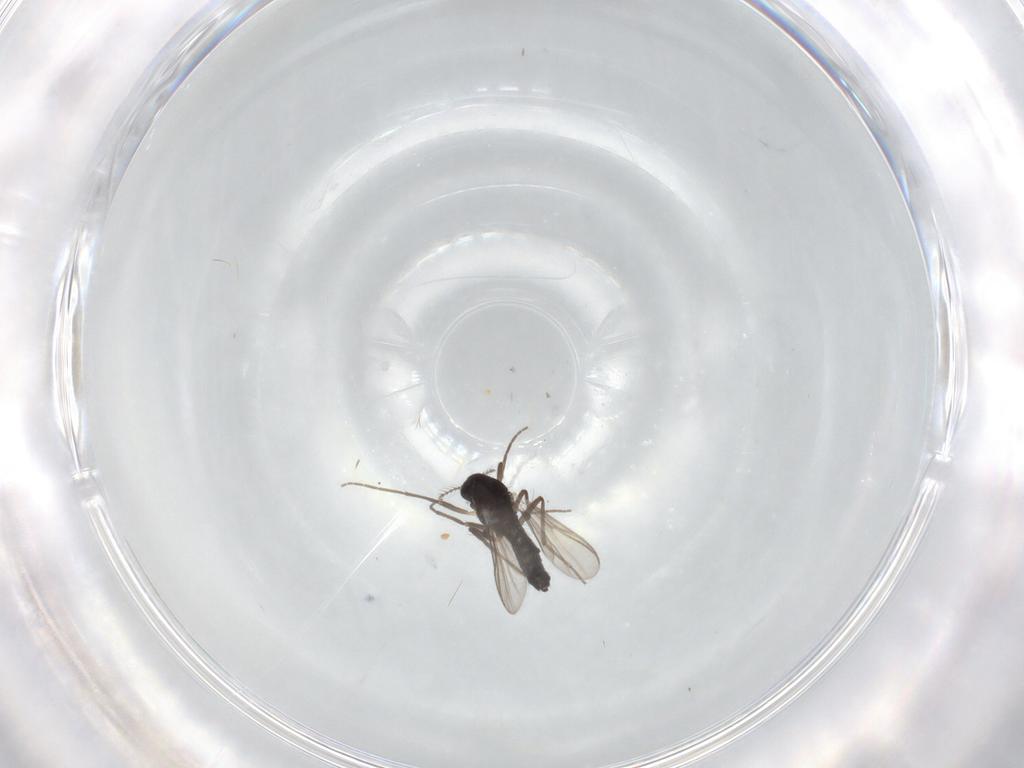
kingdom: Animalia
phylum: Arthropoda
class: Insecta
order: Diptera
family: Chironomidae
